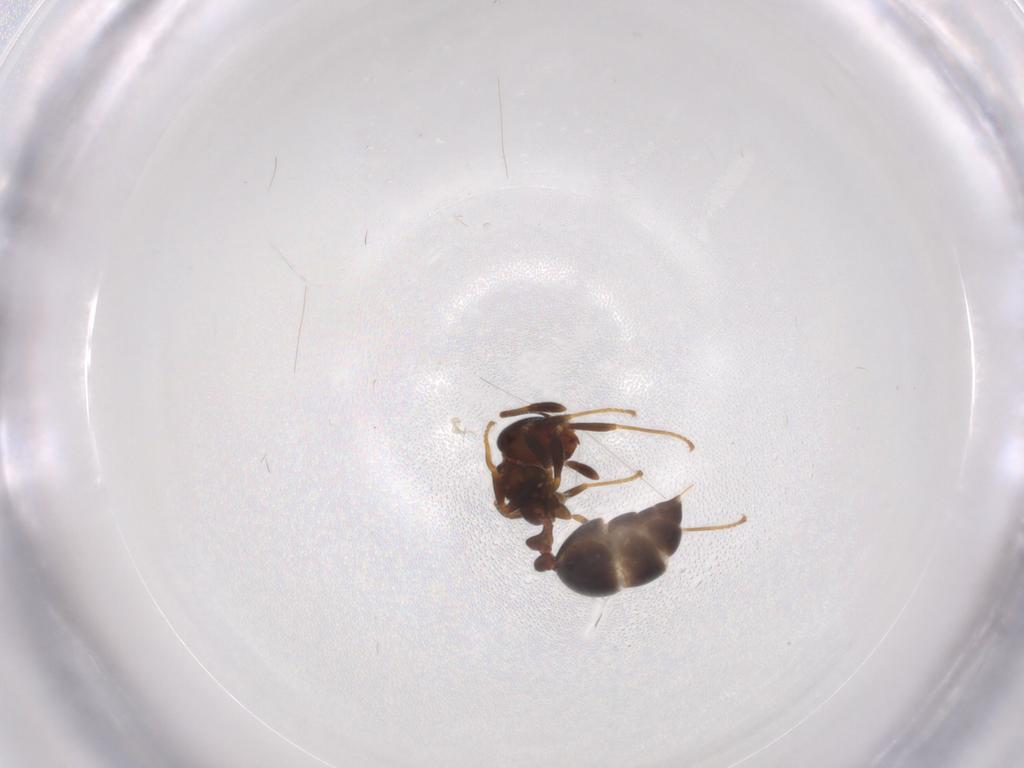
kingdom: Animalia
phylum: Arthropoda
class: Insecta
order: Hymenoptera
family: Formicidae
